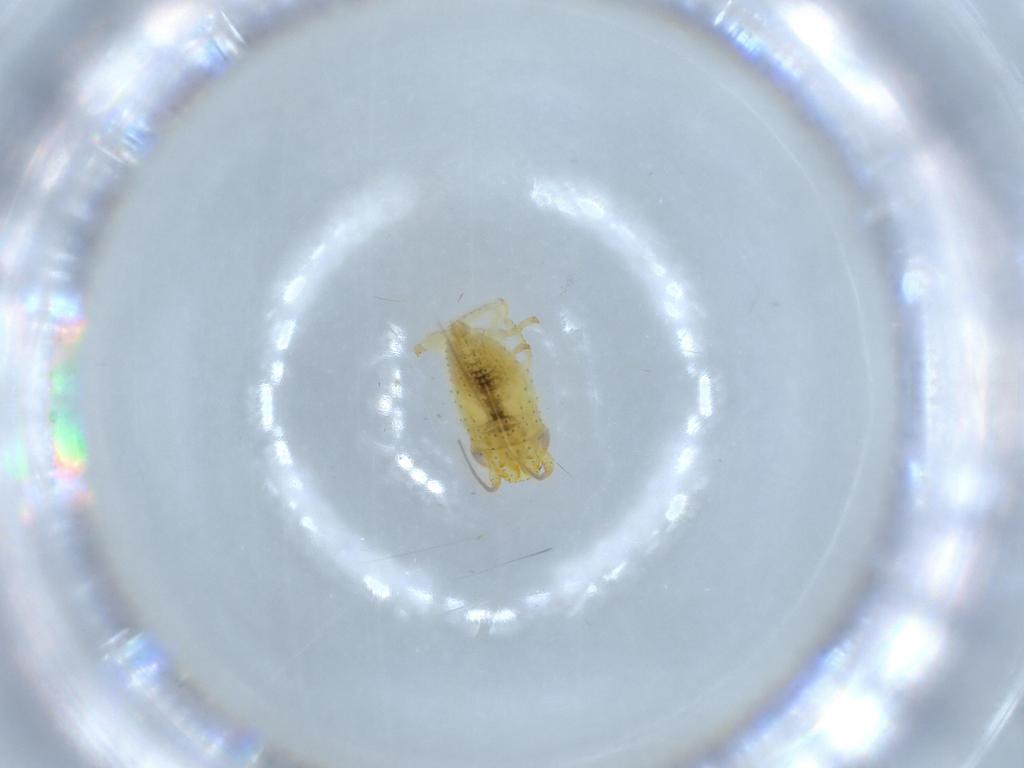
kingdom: Animalia
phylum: Arthropoda
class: Insecta
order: Hemiptera
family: Cicadellidae
